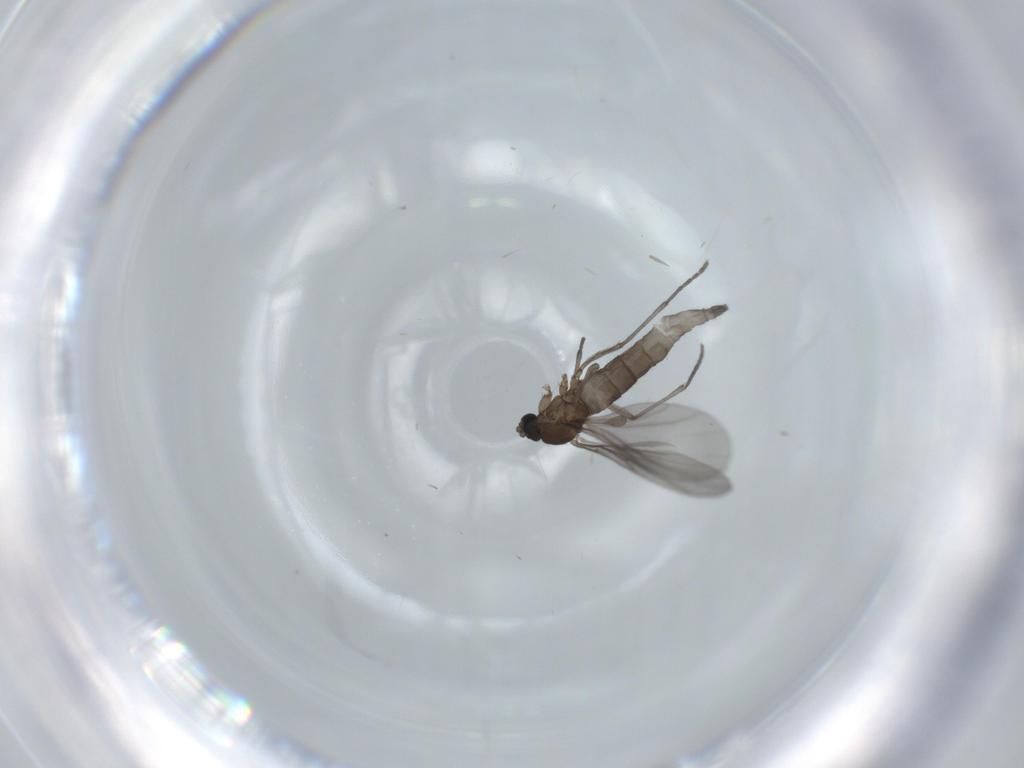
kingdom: Animalia
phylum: Arthropoda
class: Insecta
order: Diptera
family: Sciaridae
